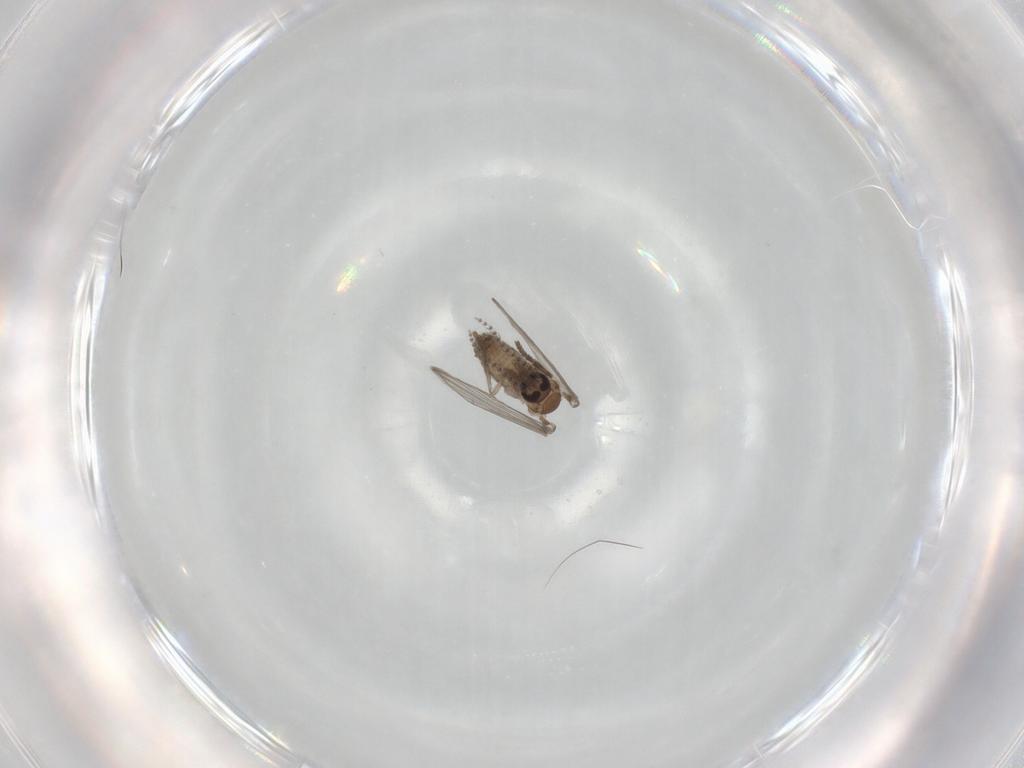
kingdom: Animalia
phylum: Arthropoda
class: Insecta
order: Diptera
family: Psychodidae
